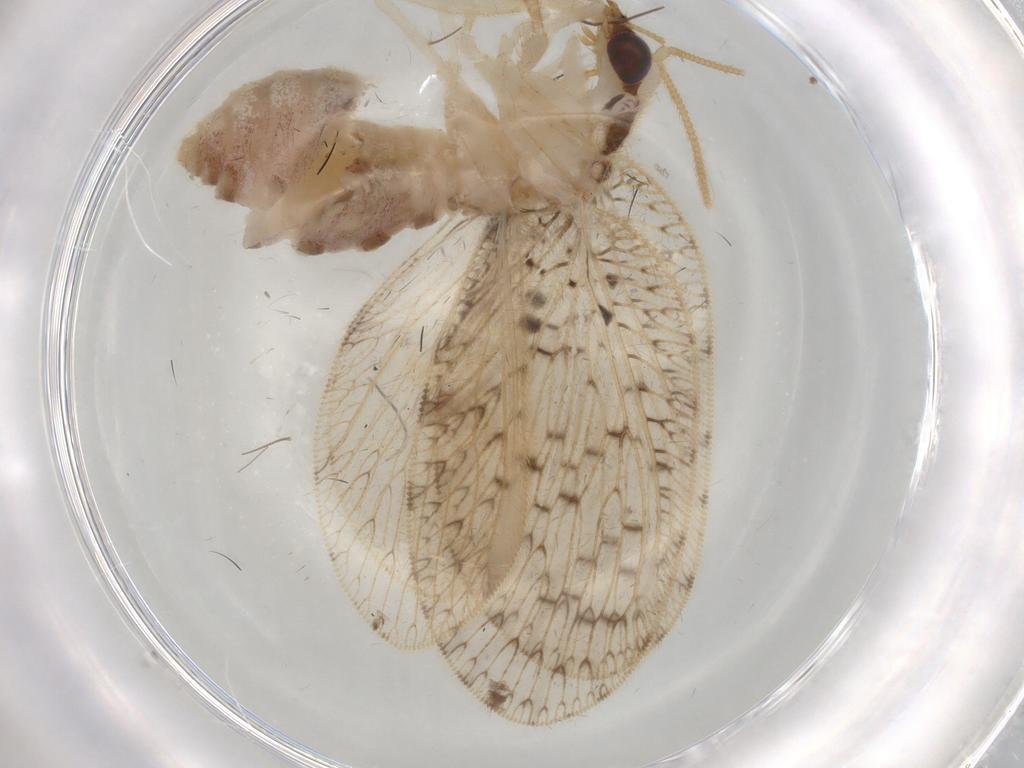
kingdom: Animalia
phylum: Arthropoda
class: Insecta
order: Neuroptera
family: Hemerobiidae
